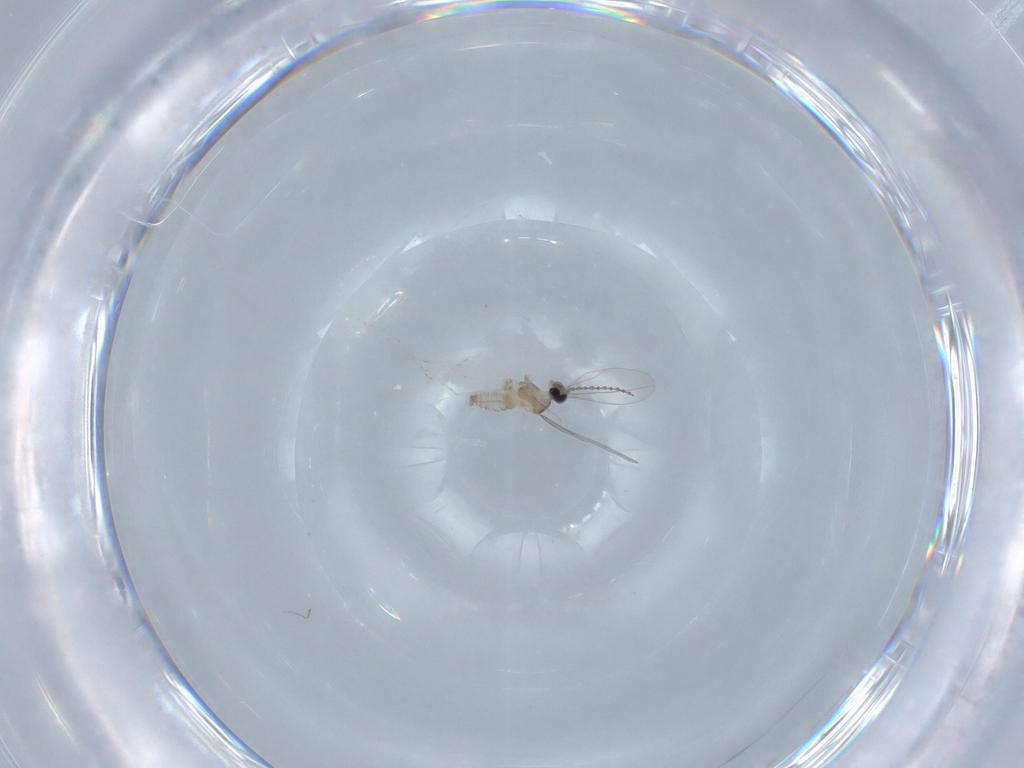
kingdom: Animalia
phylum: Arthropoda
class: Insecta
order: Diptera
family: Cecidomyiidae
